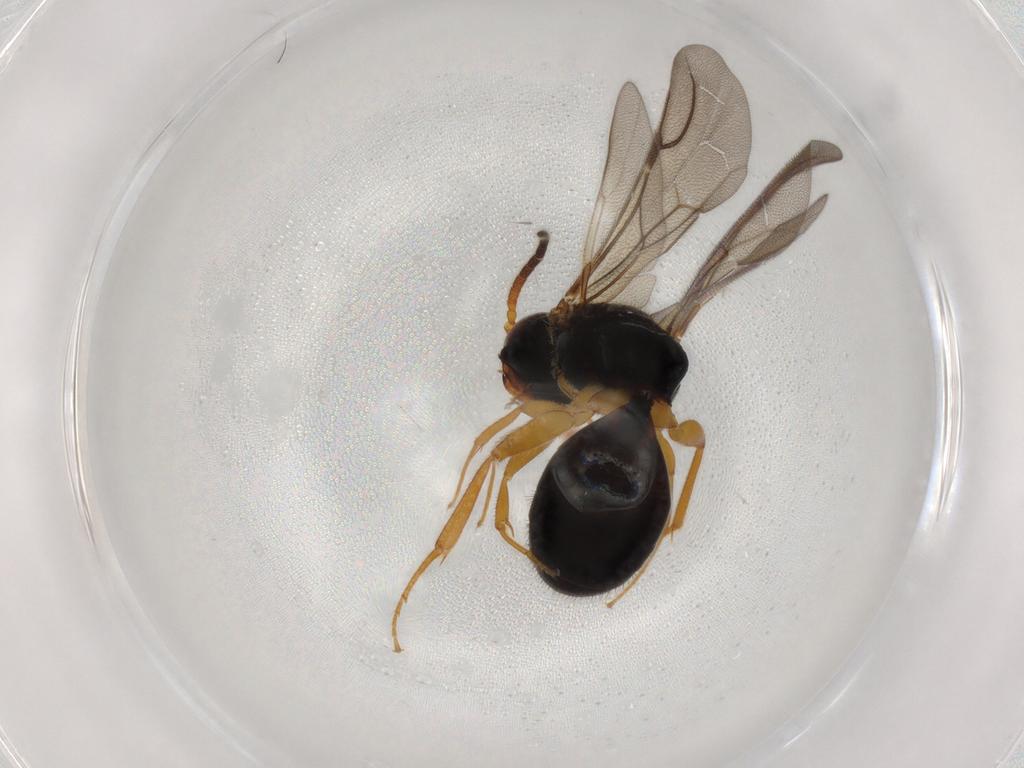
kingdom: Animalia
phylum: Arthropoda
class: Insecta
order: Hymenoptera
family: Bethylidae
